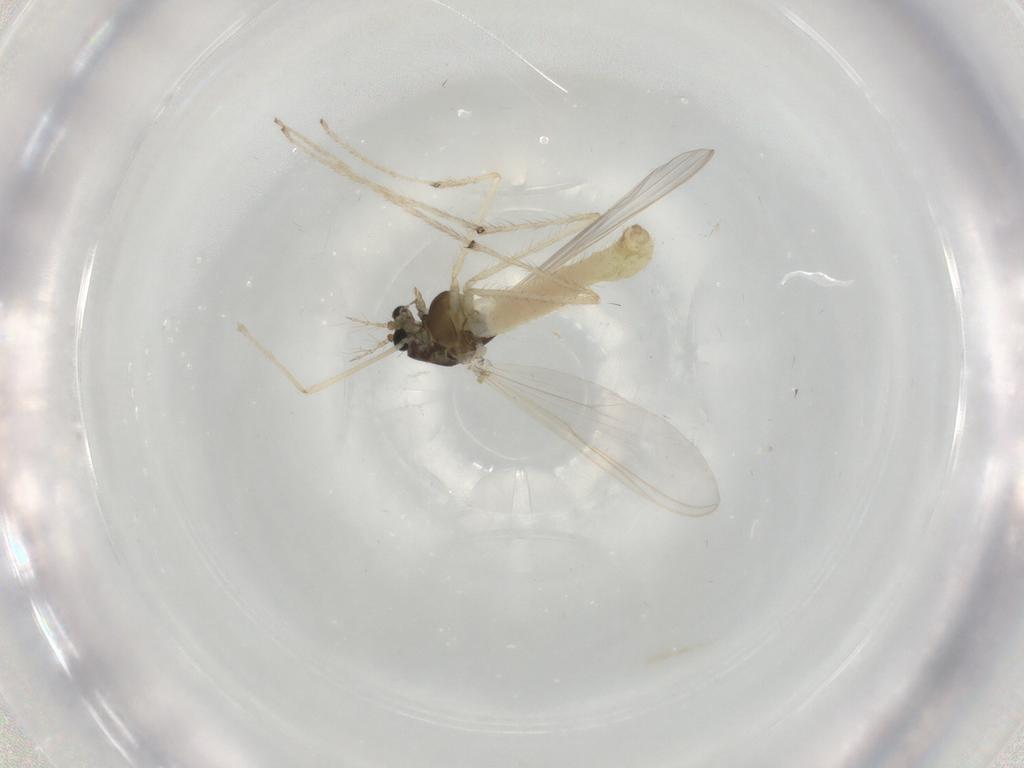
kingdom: Animalia
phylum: Arthropoda
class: Insecta
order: Diptera
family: Chironomidae
